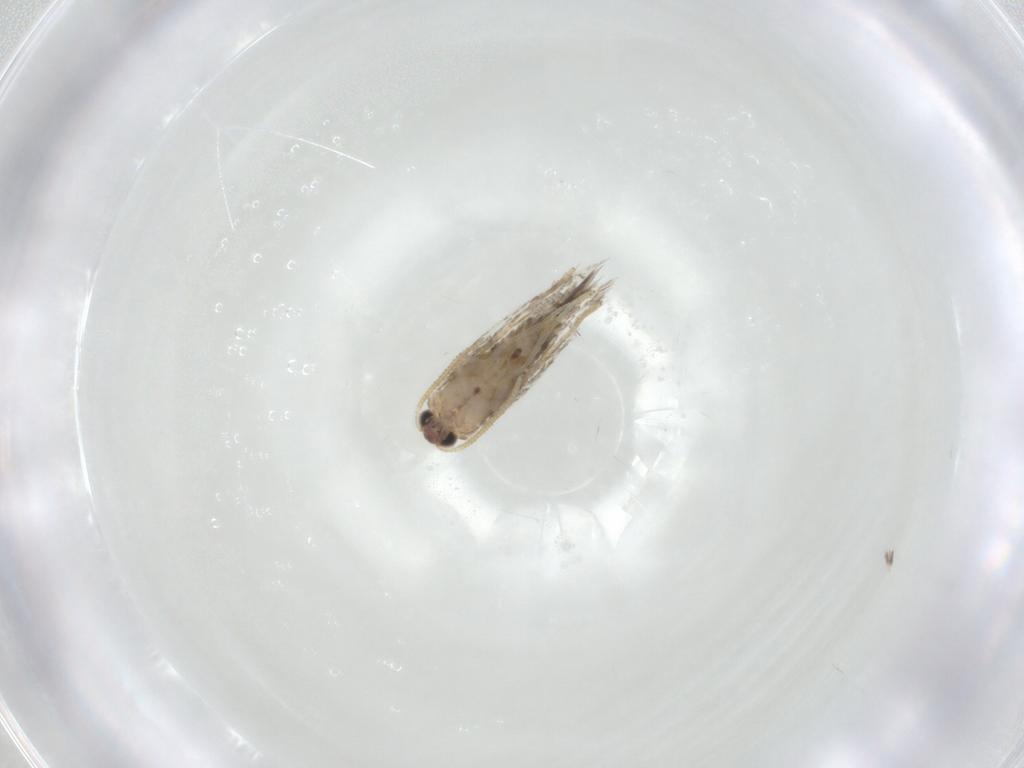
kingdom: Animalia
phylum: Arthropoda
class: Insecta
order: Lepidoptera
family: Nepticulidae
